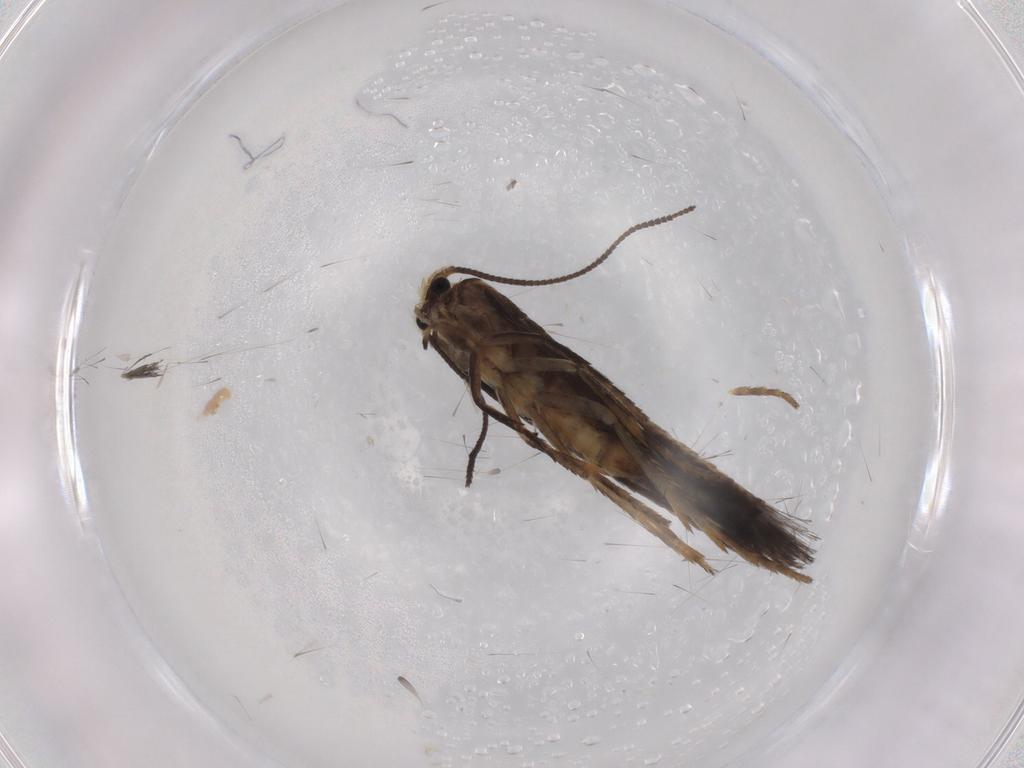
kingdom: Animalia
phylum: Arthropoda
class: Insecta
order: Lepidoptera
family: Nepticulidae
